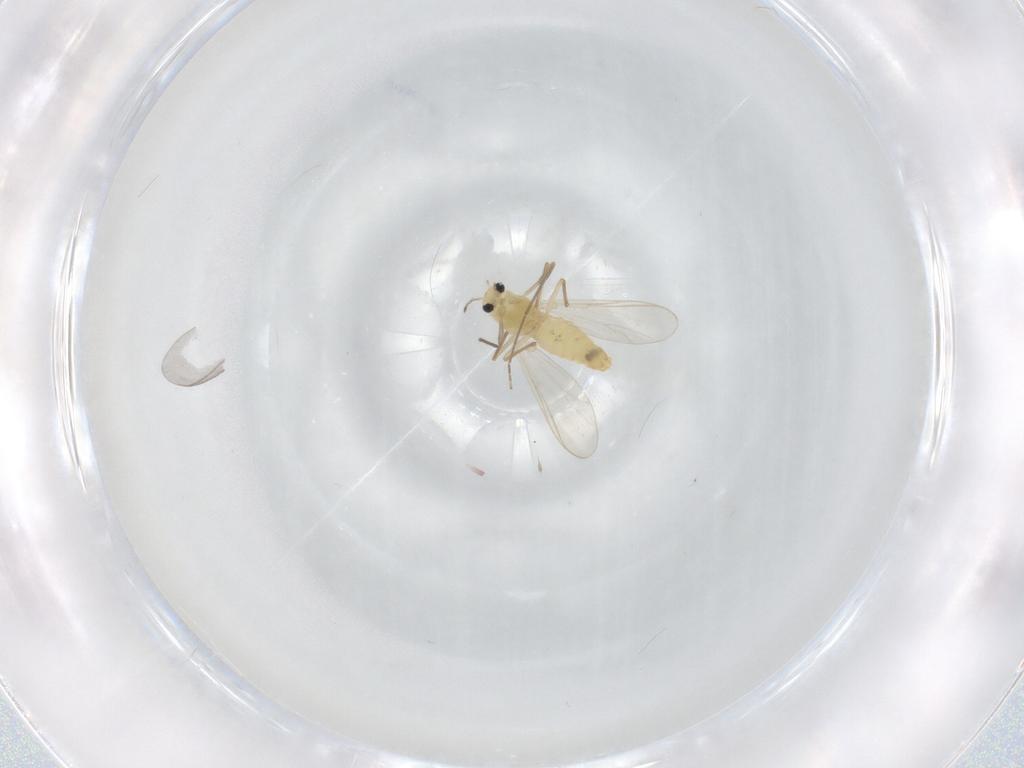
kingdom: Animalia
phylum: Arthropoda
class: Insecta
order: Diptera
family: Chironomidae
